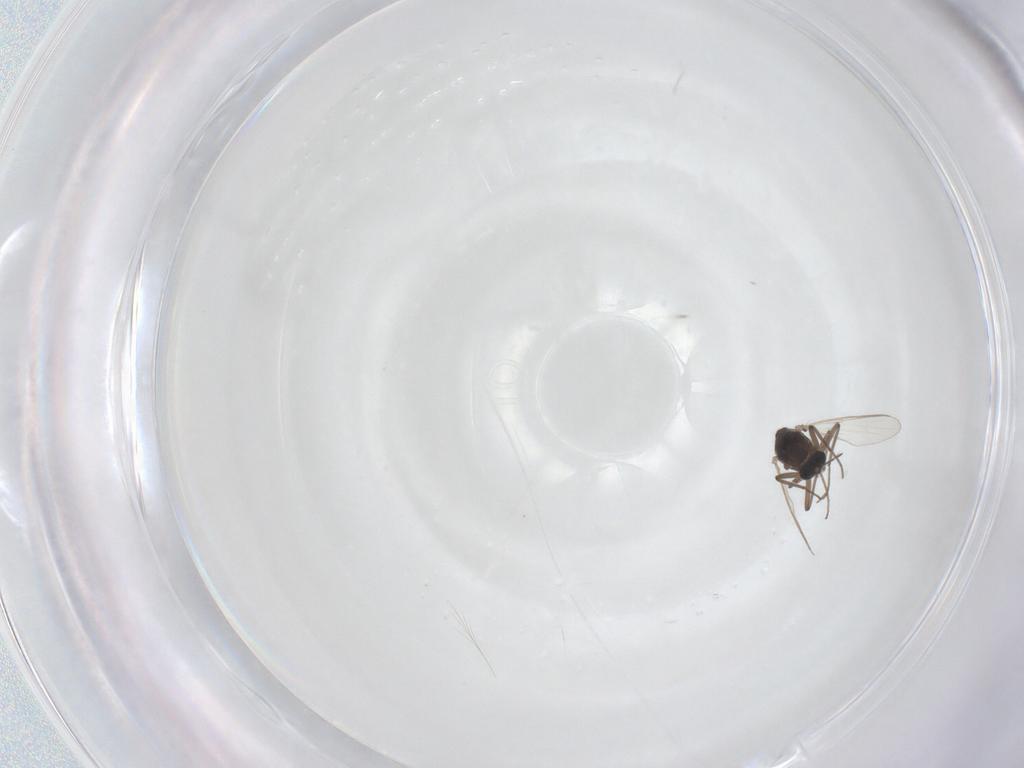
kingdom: Animalia
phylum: Arthropoda
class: Insecta
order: Diptera
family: Chironomidae
